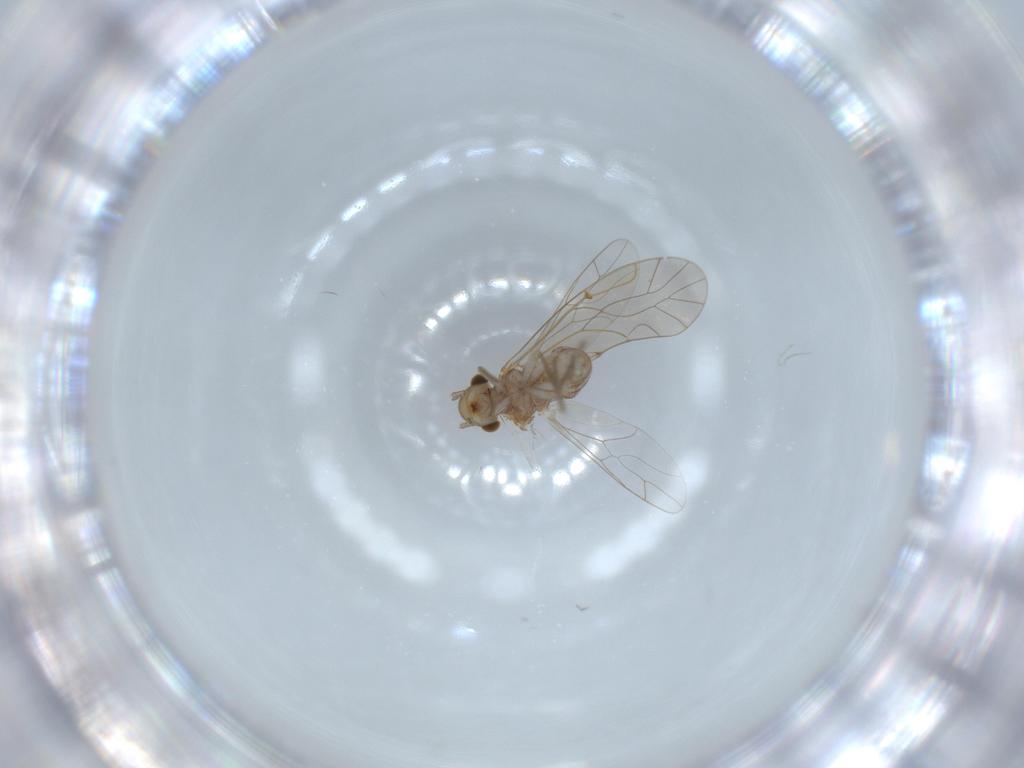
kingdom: Animalia
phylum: Arthropoda
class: Insecta
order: Psocodea
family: Lachesillidae
